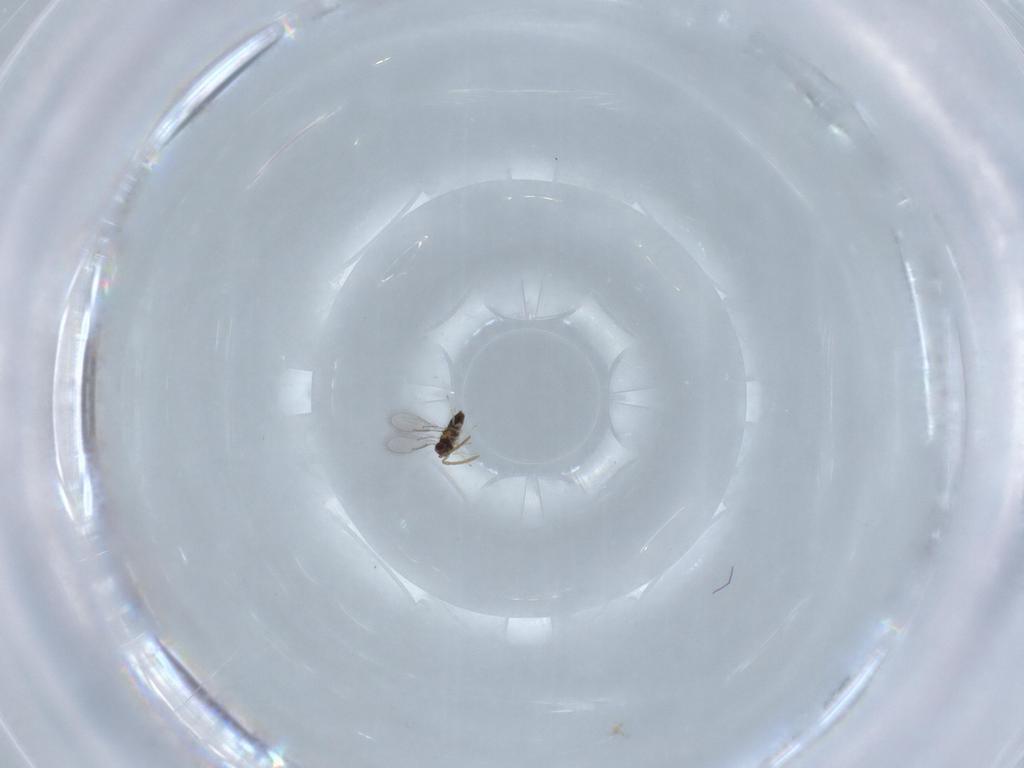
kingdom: Animalia
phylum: Arthropoda
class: Insecta
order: Hymenoptera
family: Aphelinidae
